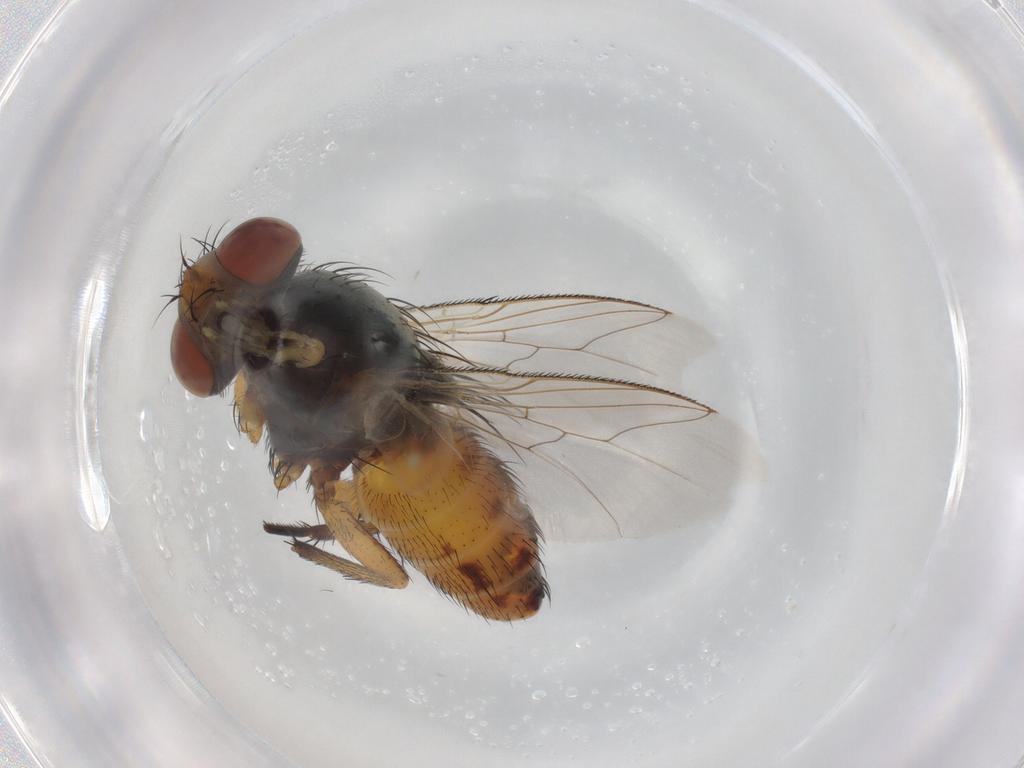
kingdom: Animalia
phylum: Arthropoda
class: Insecta
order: Diptera
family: Sarcophagidae
